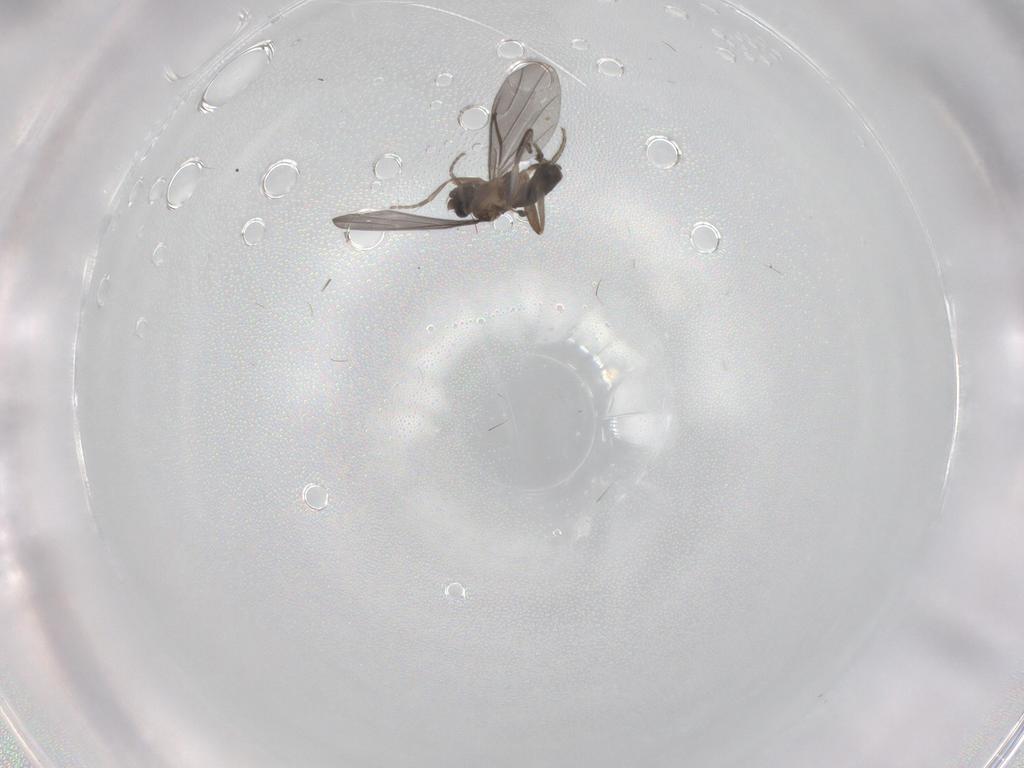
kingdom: Animalia
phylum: Arthropoda
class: Insecta
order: Diptera
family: Phoridae
